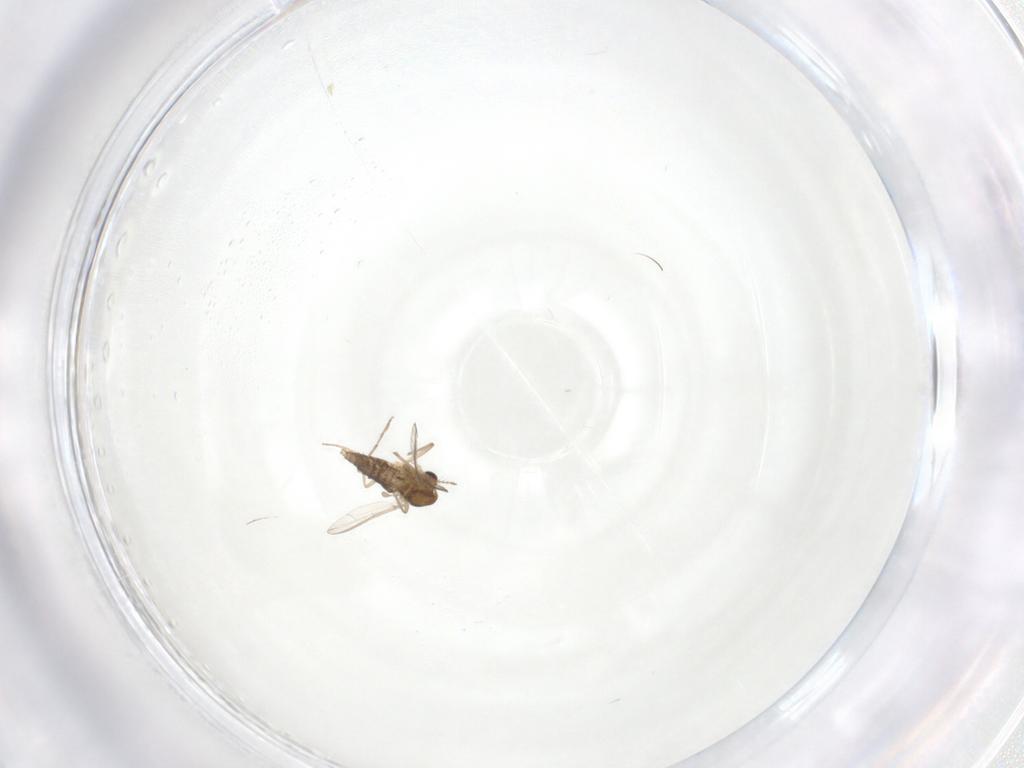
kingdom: Animalia
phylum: Arthropoda
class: Insecta
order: Diptera
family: Chironomidae
